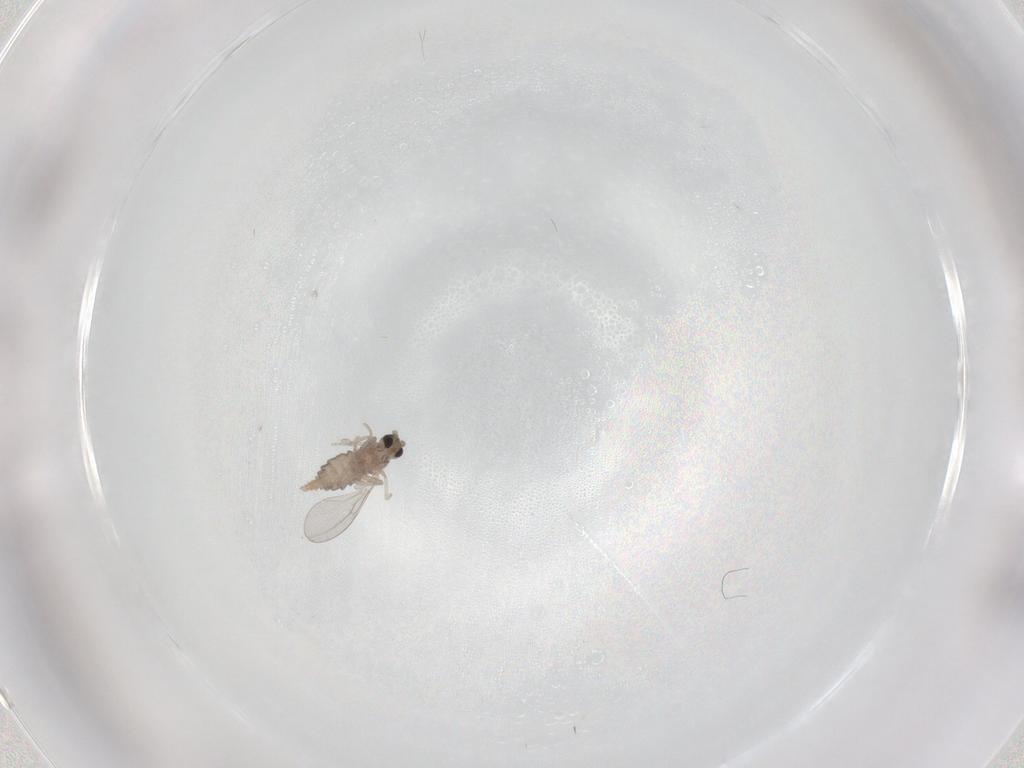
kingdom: Animalia
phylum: Arthropoda
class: Insecta
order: Diptera
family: Cecidomyiidae
